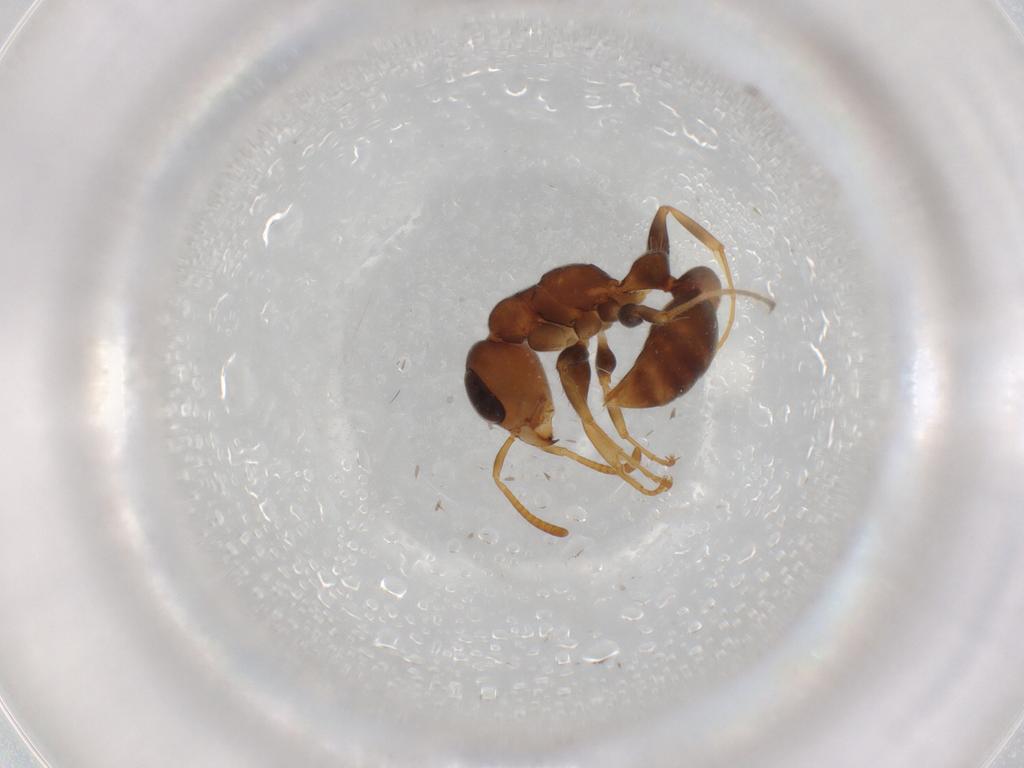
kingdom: Animalia
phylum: Arthropoda
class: Insecta
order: Hymenoptera
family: Formicidae
